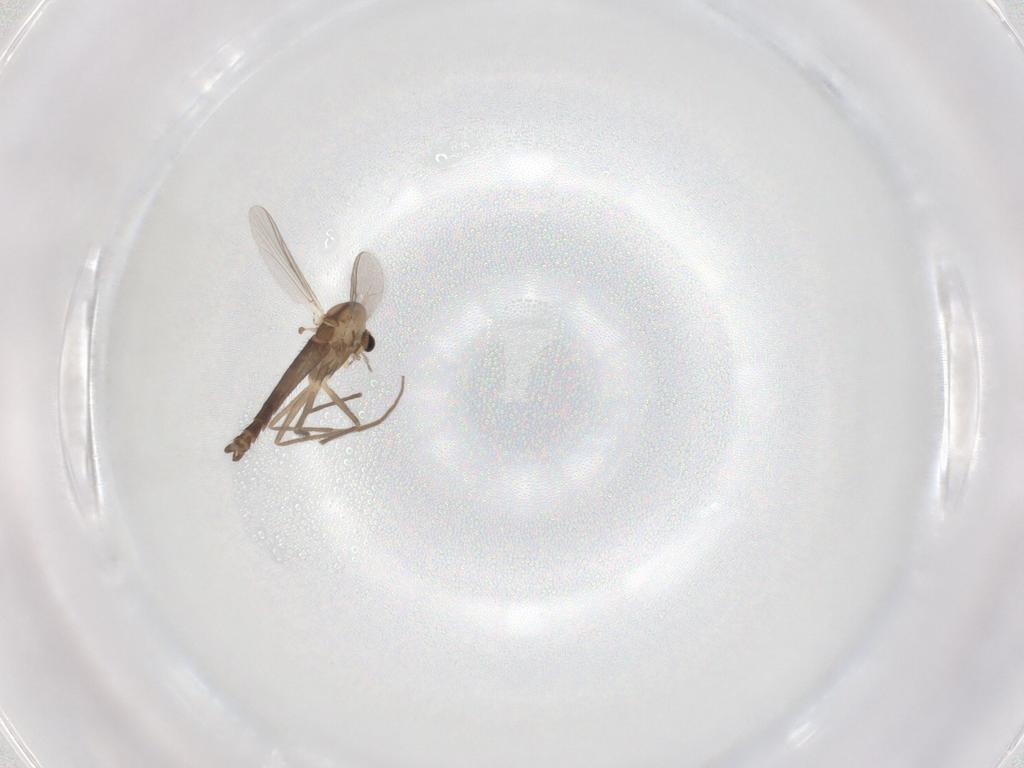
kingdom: Animalia
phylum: Arthropoda
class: Insecta
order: Diptera
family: Chironomidae
